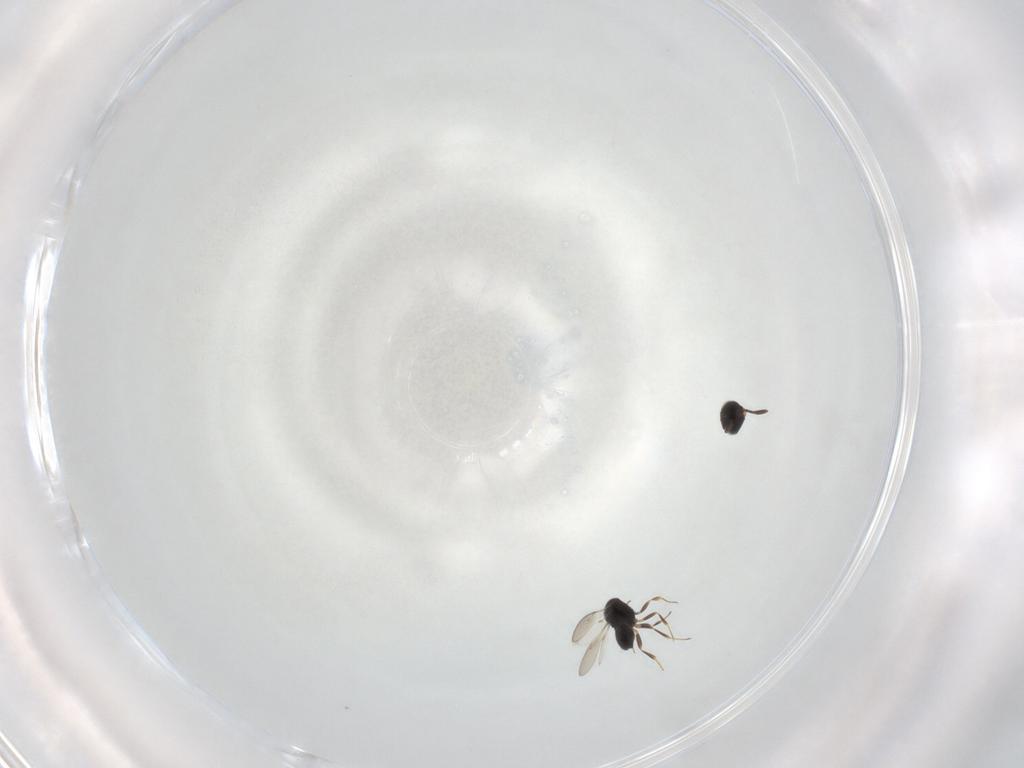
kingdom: Animalia
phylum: Arthropoda
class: Insecta
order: Hymenoptera
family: Scelionidae
